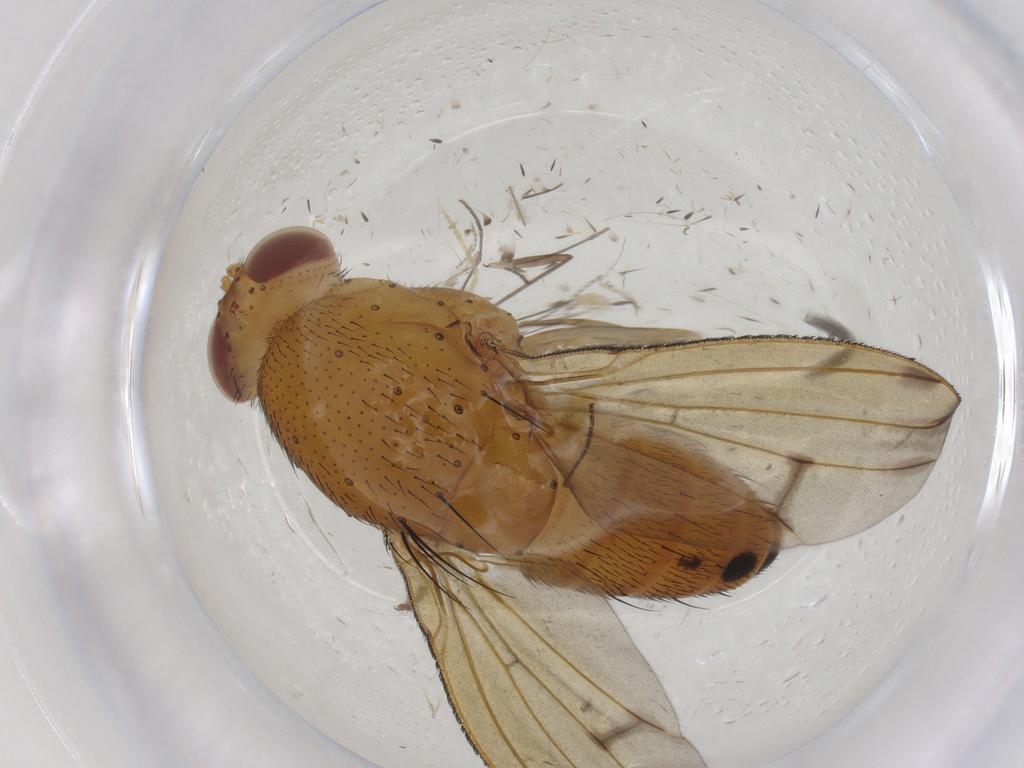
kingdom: Animalia
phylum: Arthropoda
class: Insecta
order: Diptera
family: Sciaridae
